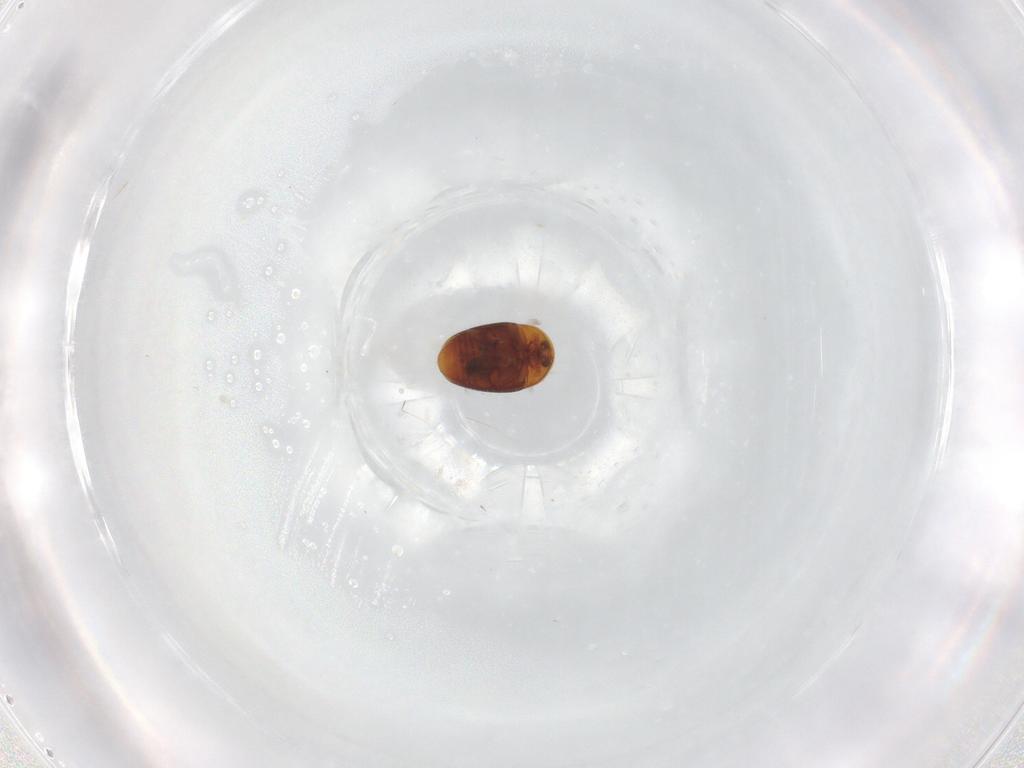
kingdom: Animalia
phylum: Arthropoda
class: Insecta
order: Coleoptera
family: Corylophidae
